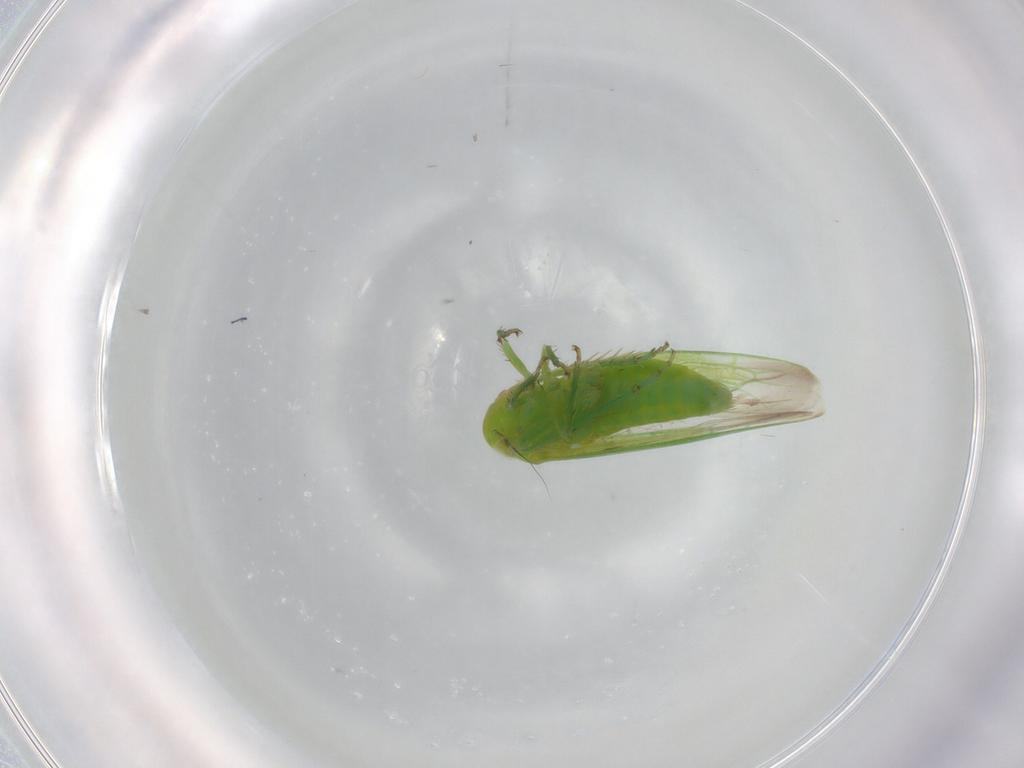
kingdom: Animalia
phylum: Arthropoda
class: Insecta
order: Hemiptera
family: Cicadellidae
